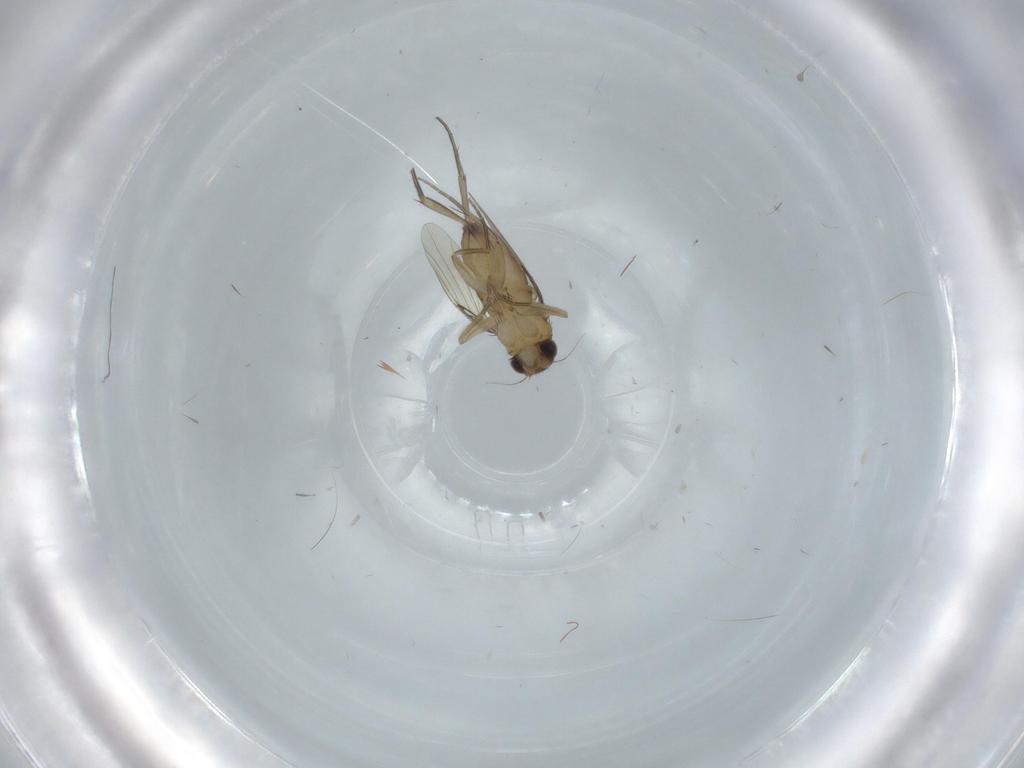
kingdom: Animalia
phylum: Arthropoda
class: Insecta
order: Diptera
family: Phoridae
